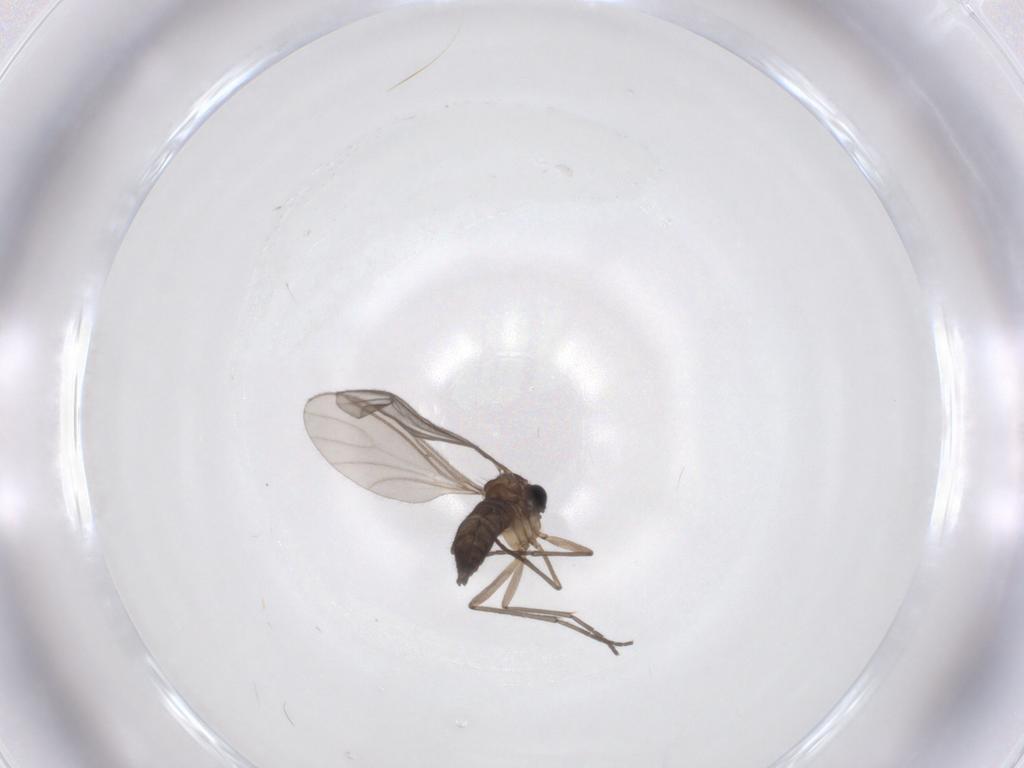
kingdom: Animalia
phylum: Arthropoda
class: Insecta
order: Diptera
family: Sciaridae
